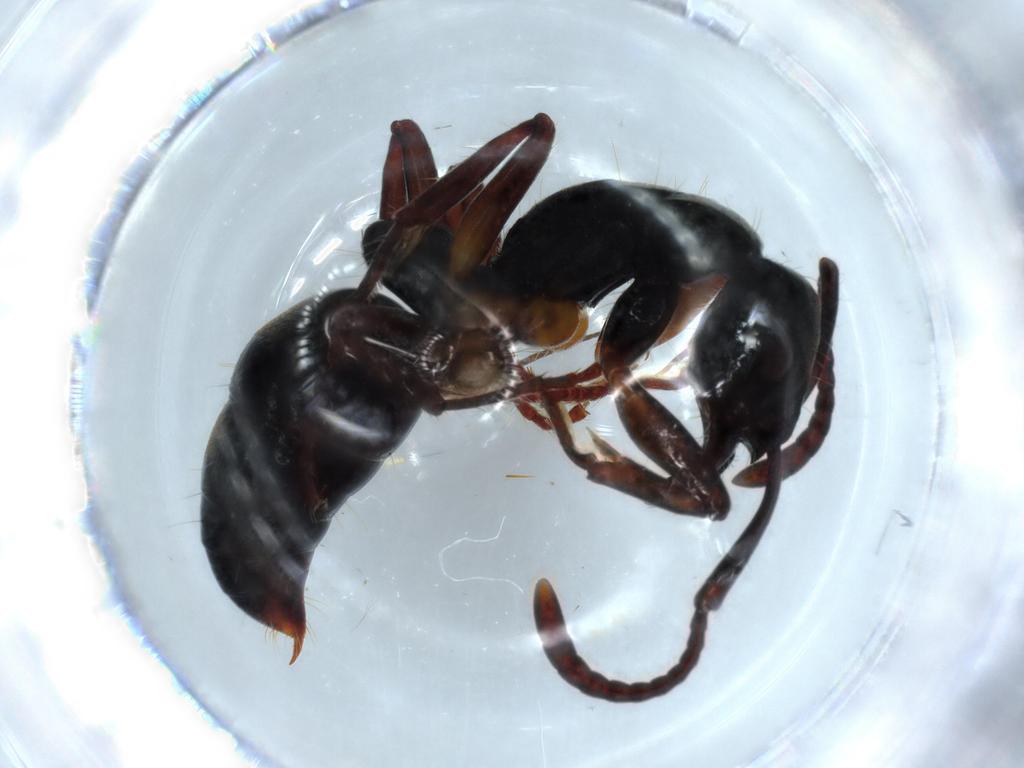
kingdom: Animalia
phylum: Arthropoda
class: Insecta
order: Hymenoptera
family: Formicidae
